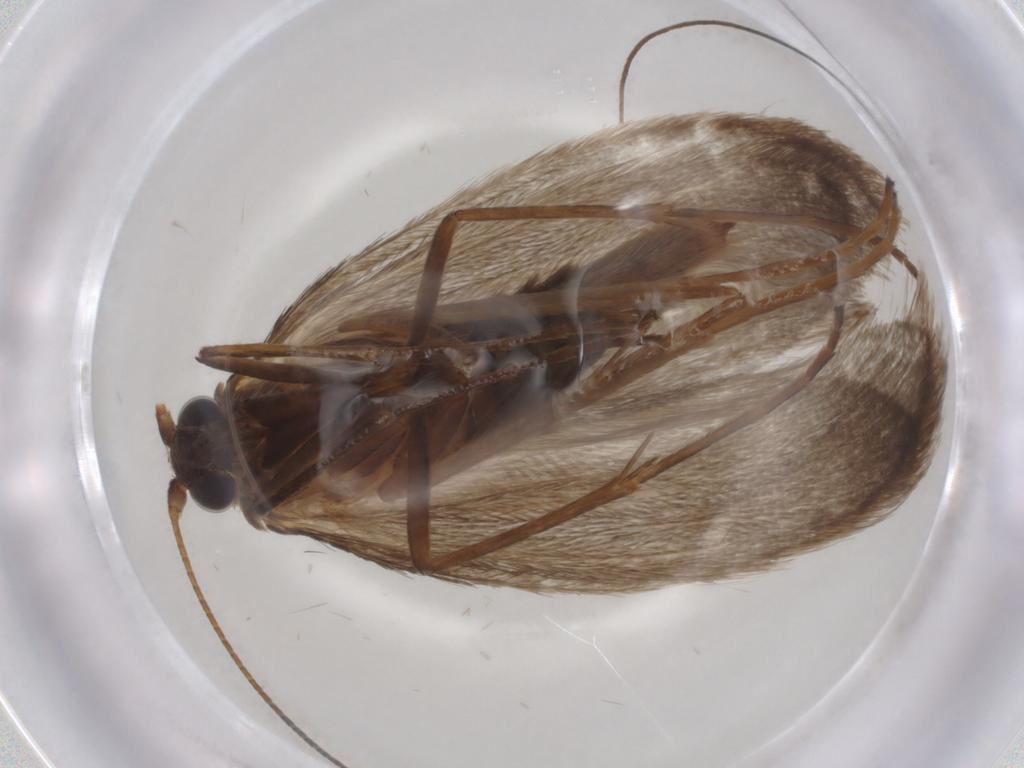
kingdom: Animalia
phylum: Arthropoda
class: Insecta
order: Lepidoptera
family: Adelidae
